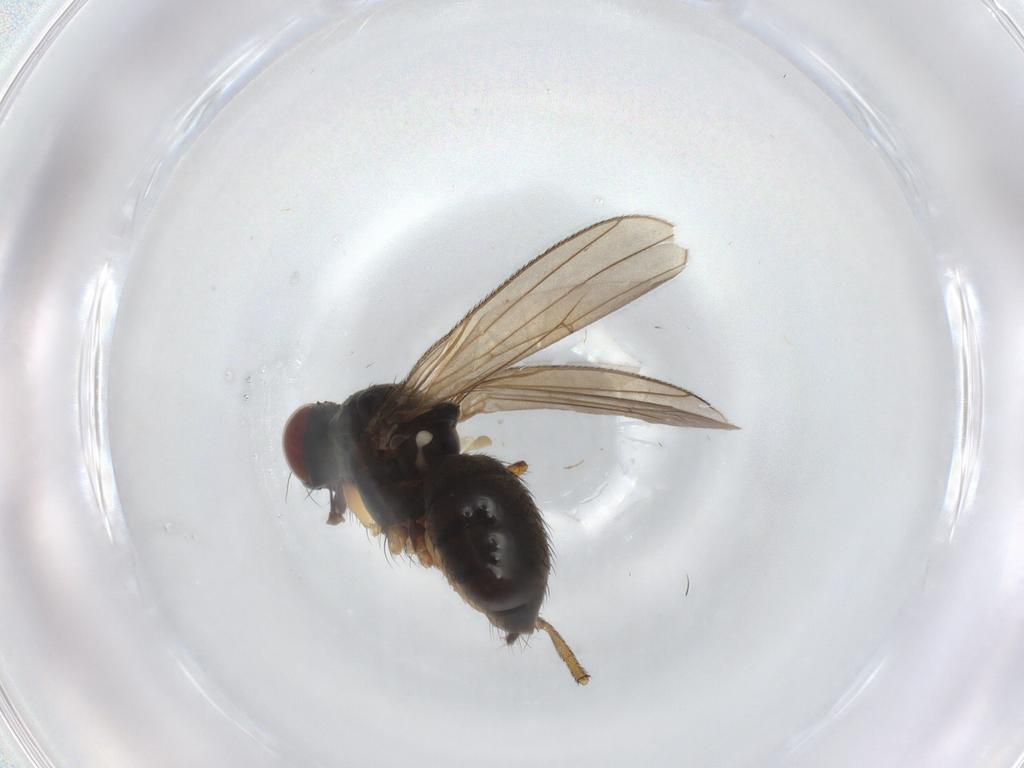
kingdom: Animalia
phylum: Arthropoda
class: Insecta
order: Diptera
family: Muscidae
